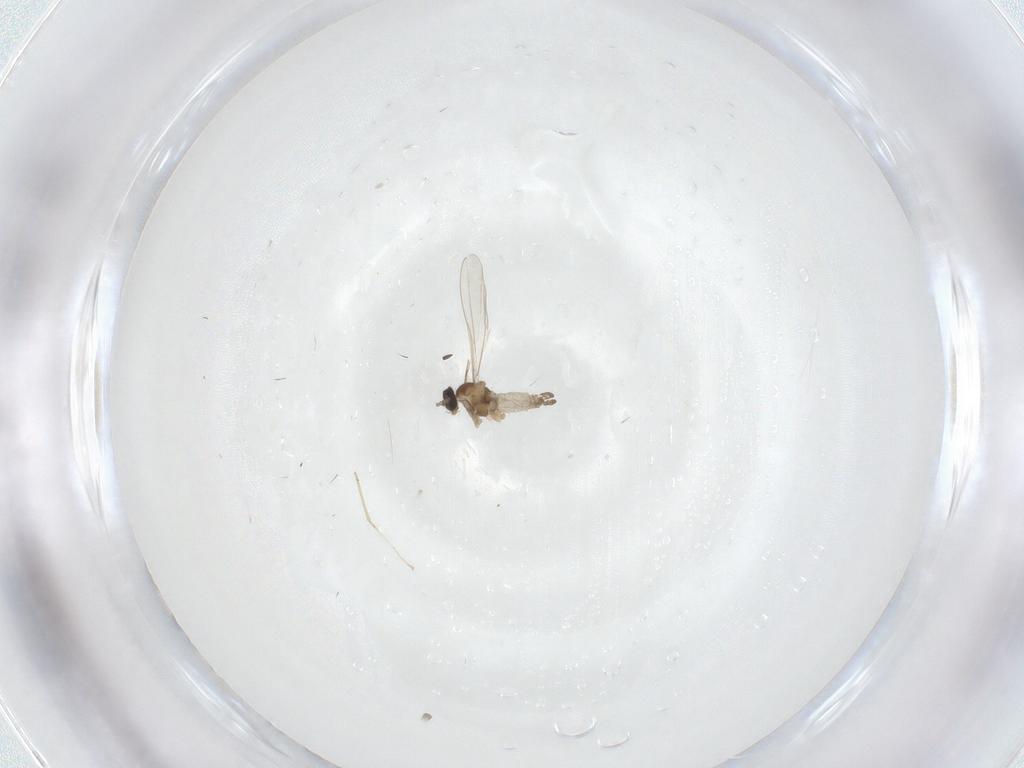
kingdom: Animalia
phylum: Arthropoda
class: Insecta
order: Diptera
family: Cecidomyiidae
